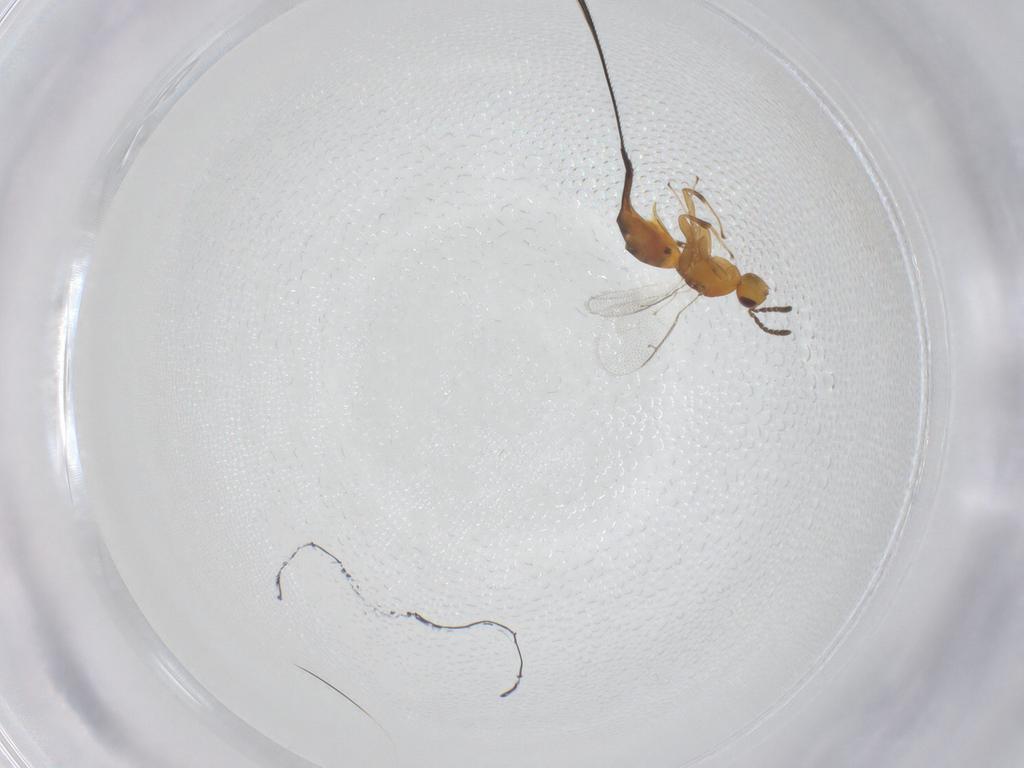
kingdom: Animalia
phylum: Arthropoda
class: Insecta
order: Hymenoptera
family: Pteromalidae
